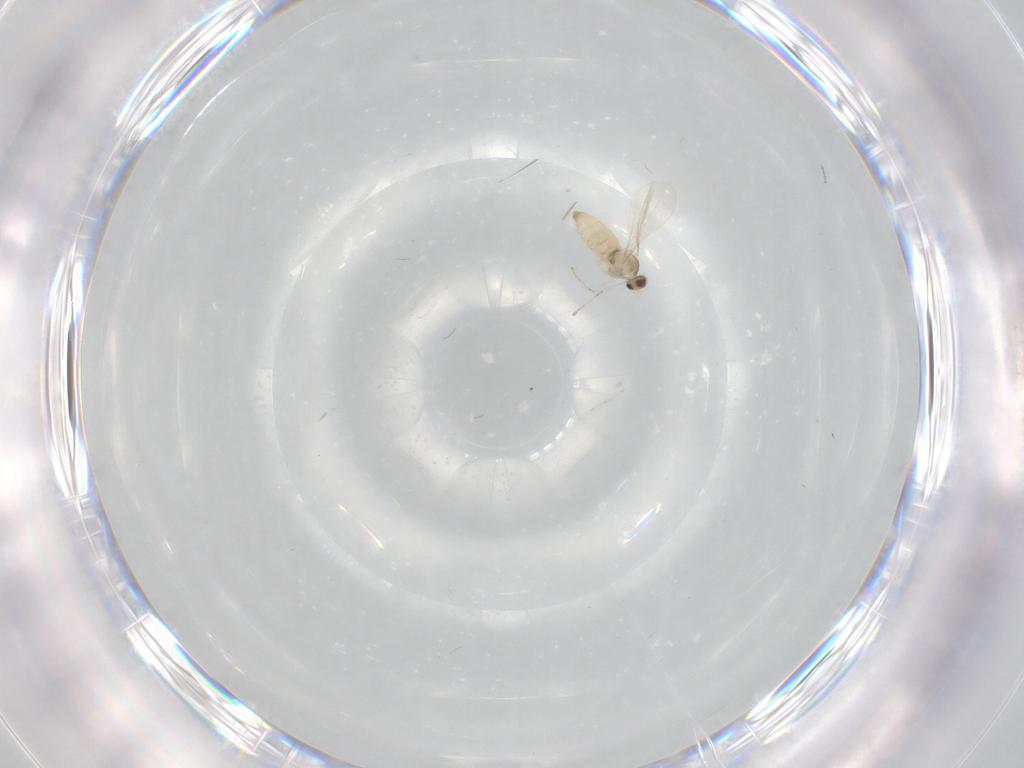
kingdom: Animalia
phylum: Arthropoda
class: Insecta
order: Diptera
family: Cecidomyiidae
